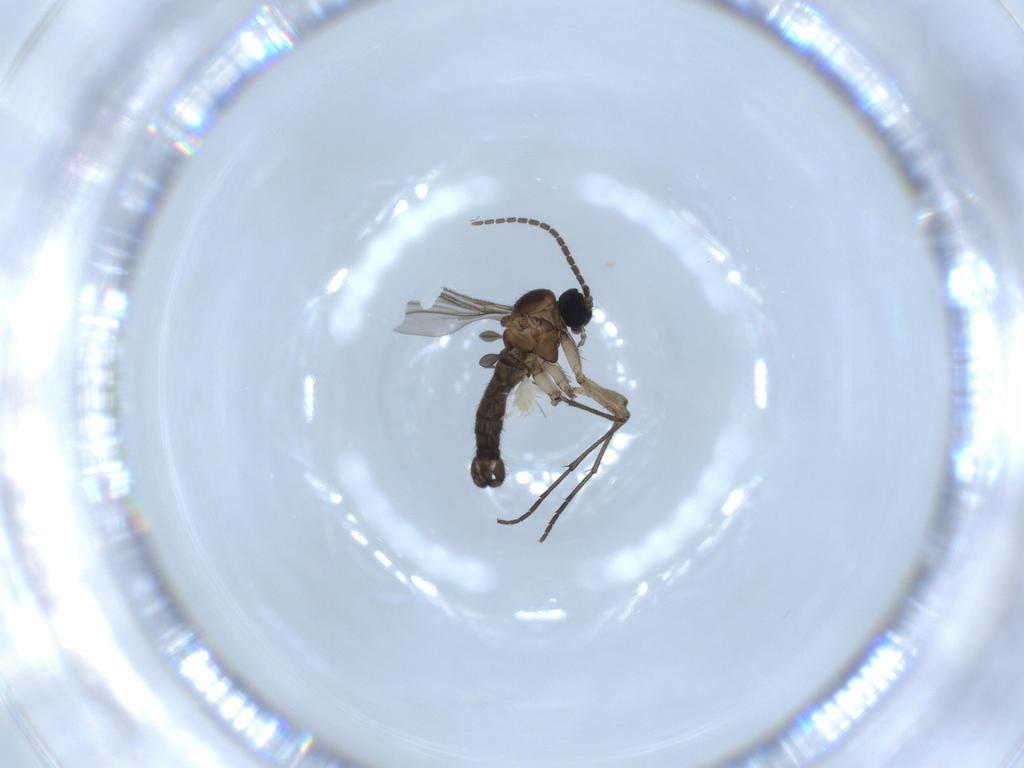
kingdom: Animalia
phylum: Arthropoda
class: Insecta
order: Diptera
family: Sciaridae
